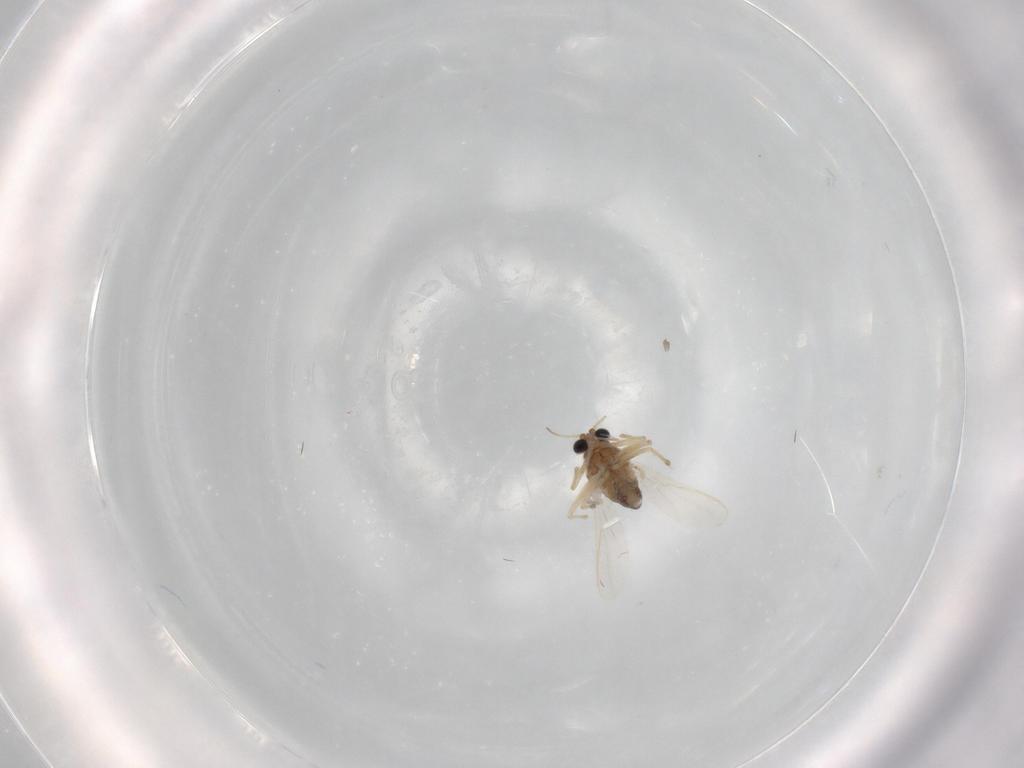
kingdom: Animalia
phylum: Arthropoda
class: Insecta
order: Diptera
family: Chironomidae
